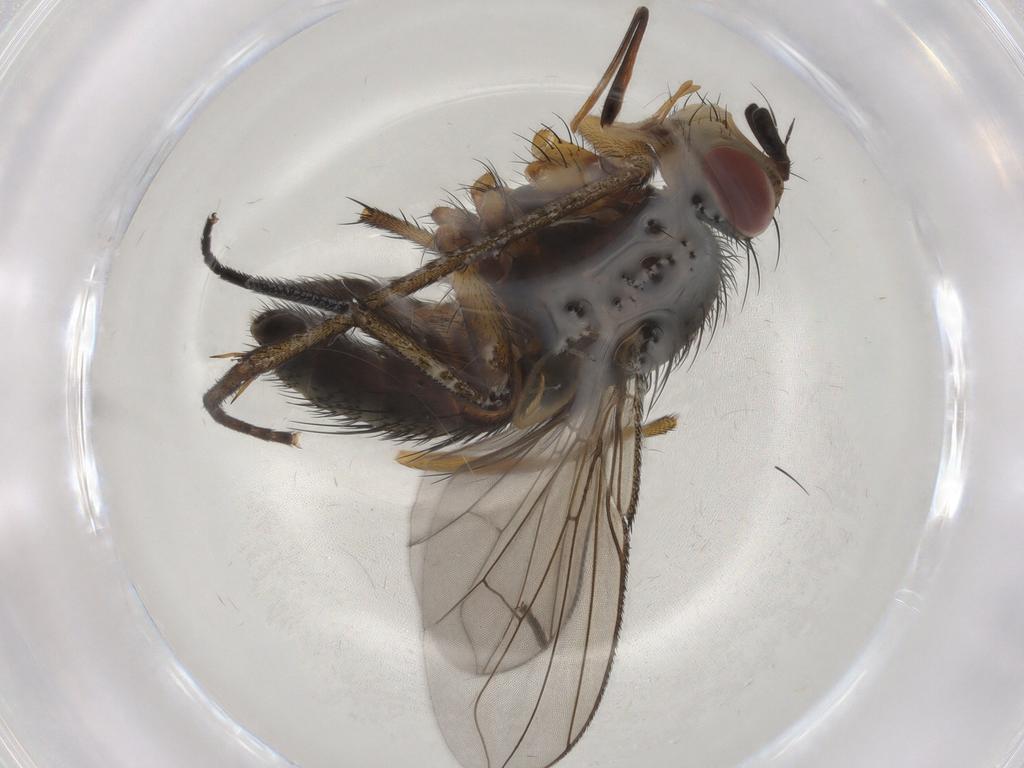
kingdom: Animalia
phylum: Arthropoda
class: Insecta
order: Diptera
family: Tachinidae
